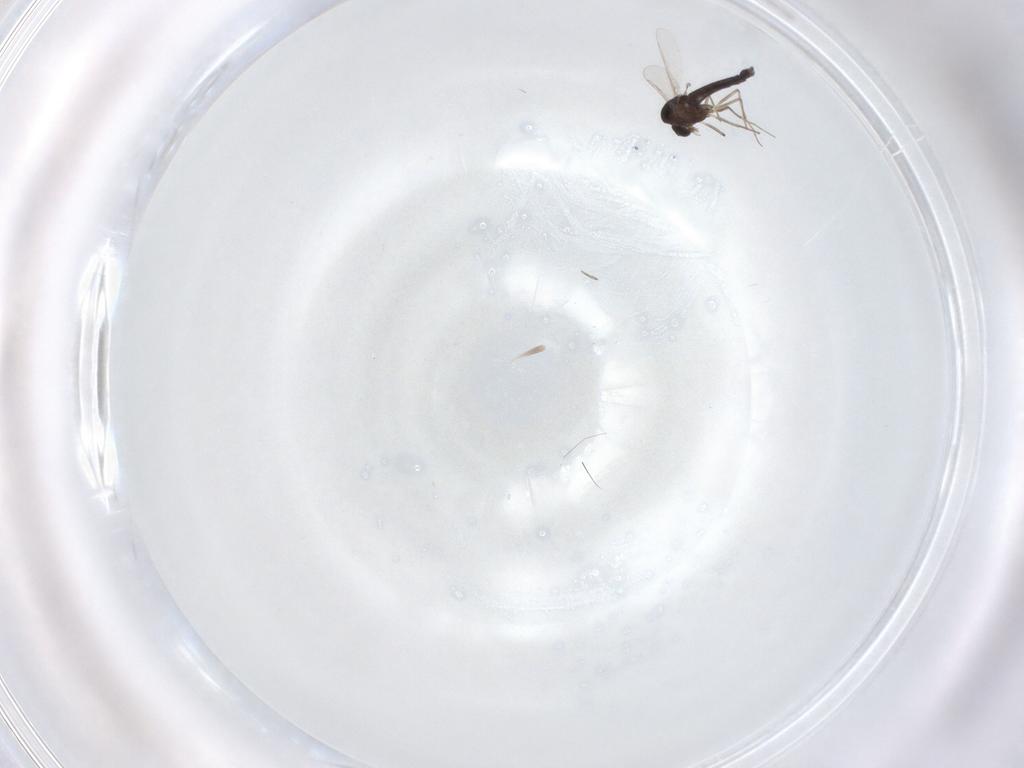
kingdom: Animalia
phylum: Arthropoda
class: Insecta
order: Diptera
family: Chironomidae
